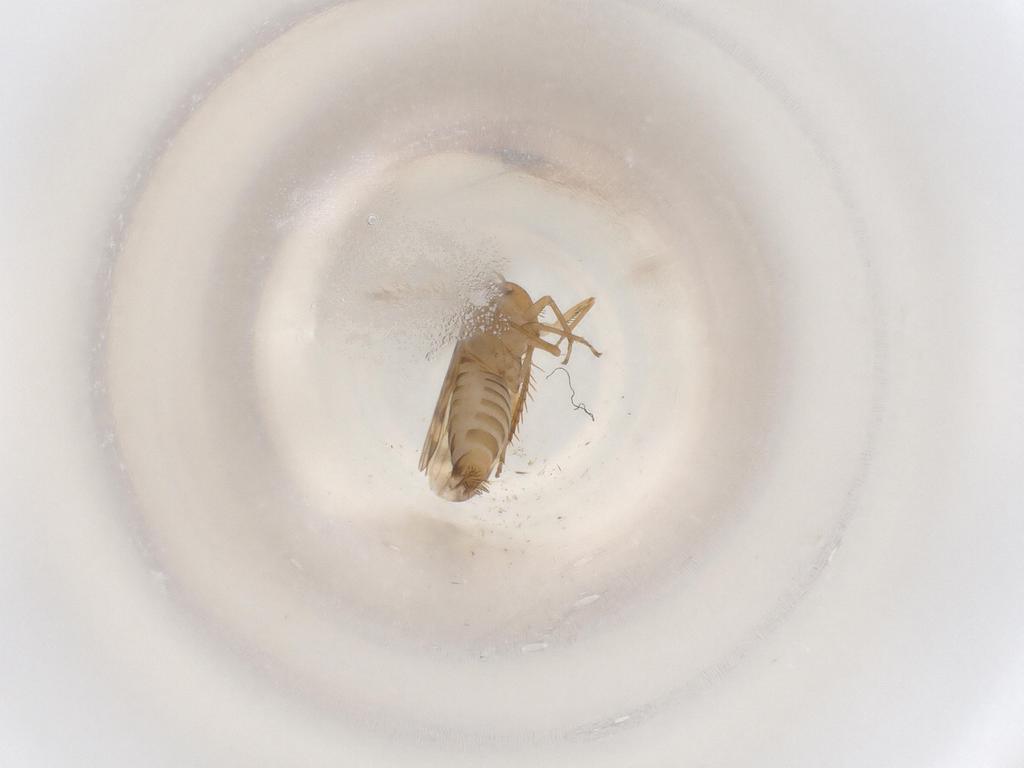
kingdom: Animalia
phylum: Arthropoda
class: Insecta
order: Hemiptera
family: Cicadellidae
